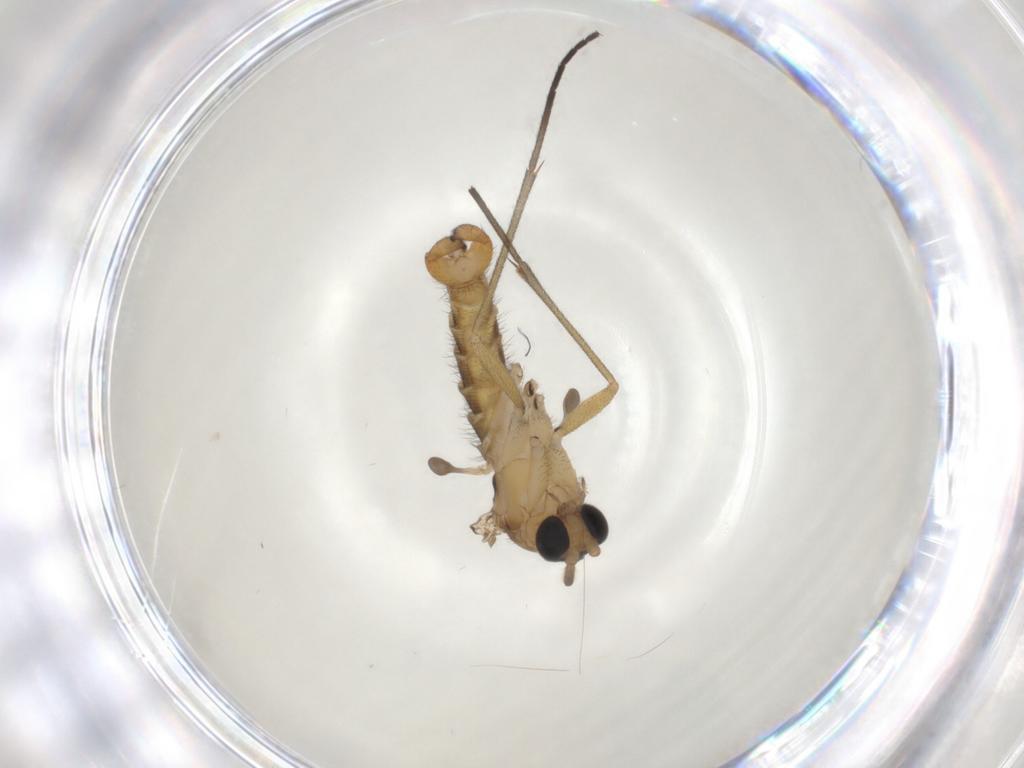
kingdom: Animalia
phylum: Arthropoda
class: Insecta
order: Diptera
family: Sciaridae
